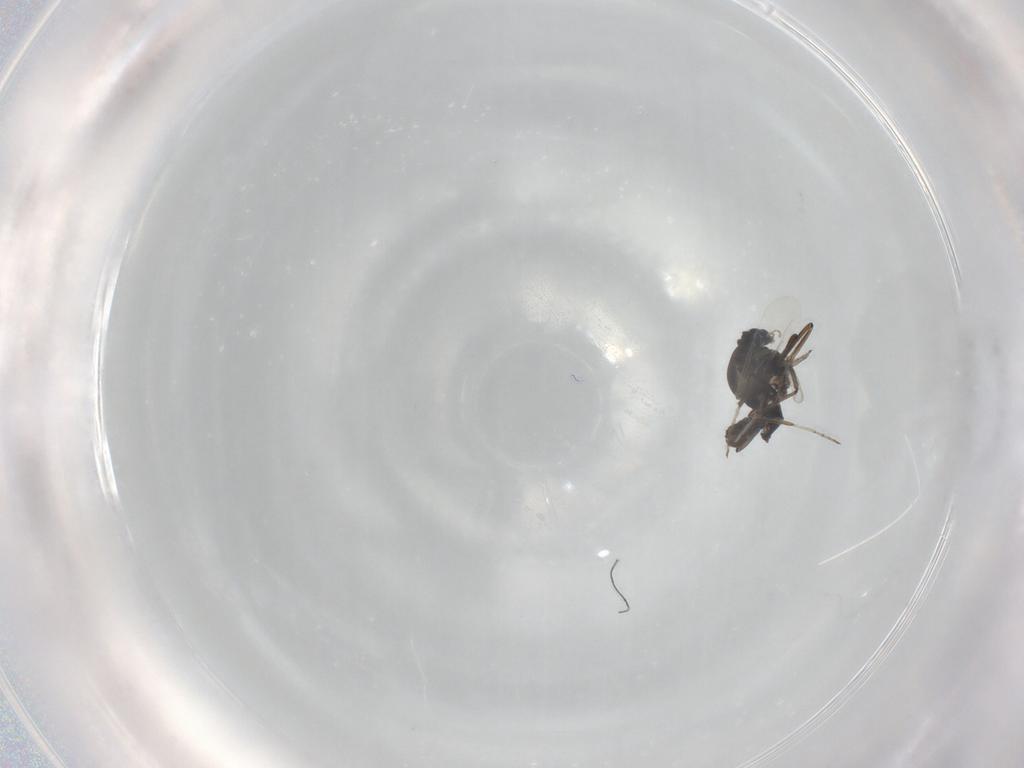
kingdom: Animalia
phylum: Arthropoda
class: Insecta
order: Diptera
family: Ceratopogonidae
